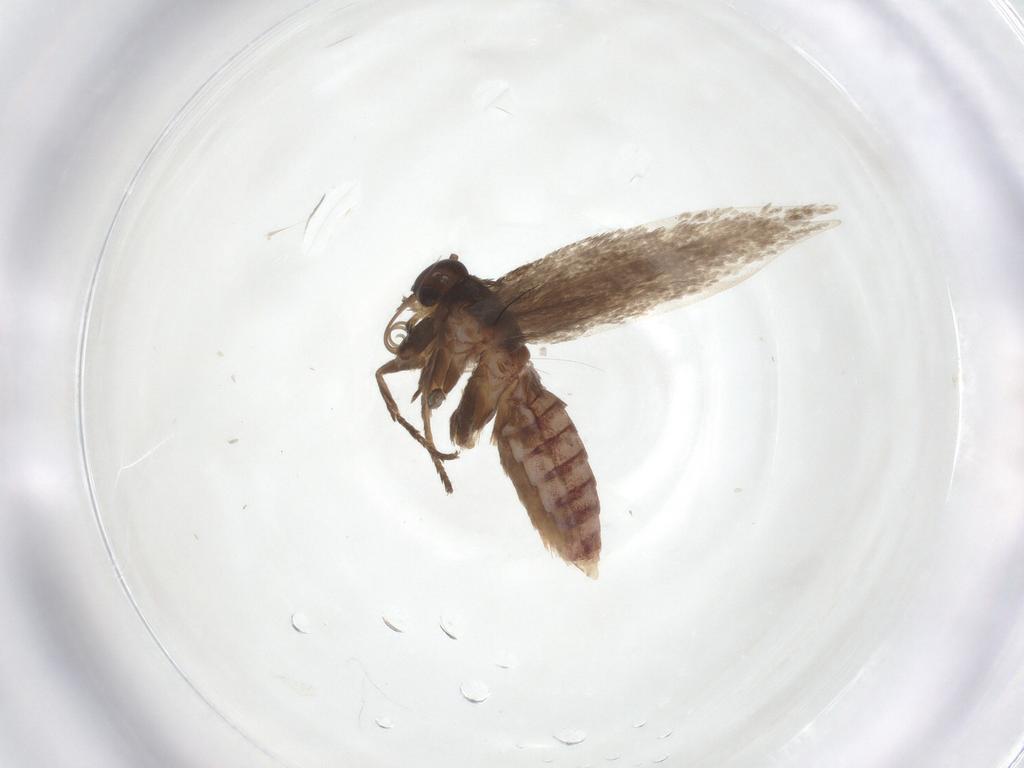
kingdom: Animalia
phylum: Arthropoda
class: Insecta
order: Lepidoptera
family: Scythrididae
